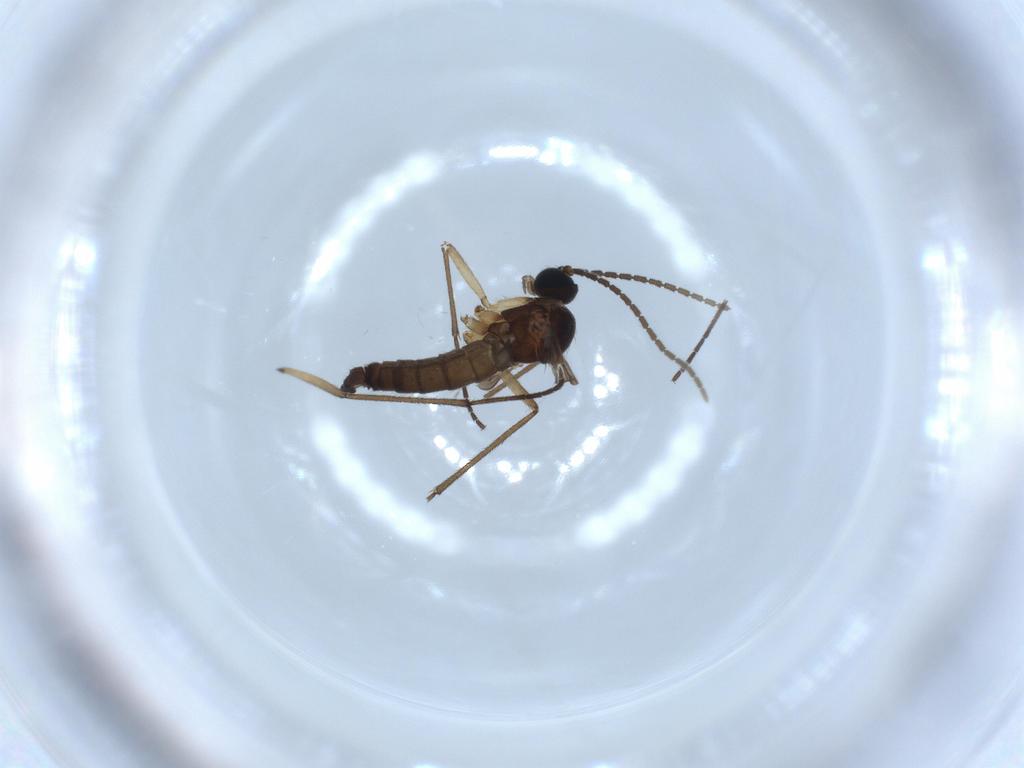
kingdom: Animalia
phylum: Arthropoda
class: Insecta
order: Diptera
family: Sciaridae
